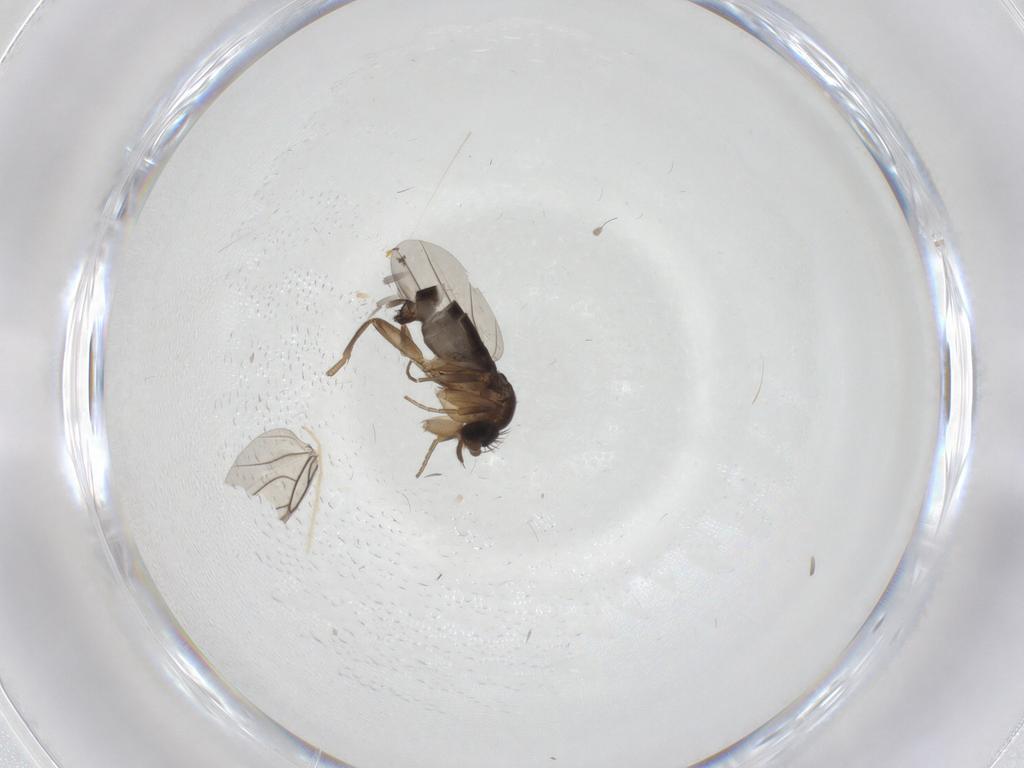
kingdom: Animalia
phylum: Arthropoda
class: Insecta
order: Diptera
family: Phoridae
